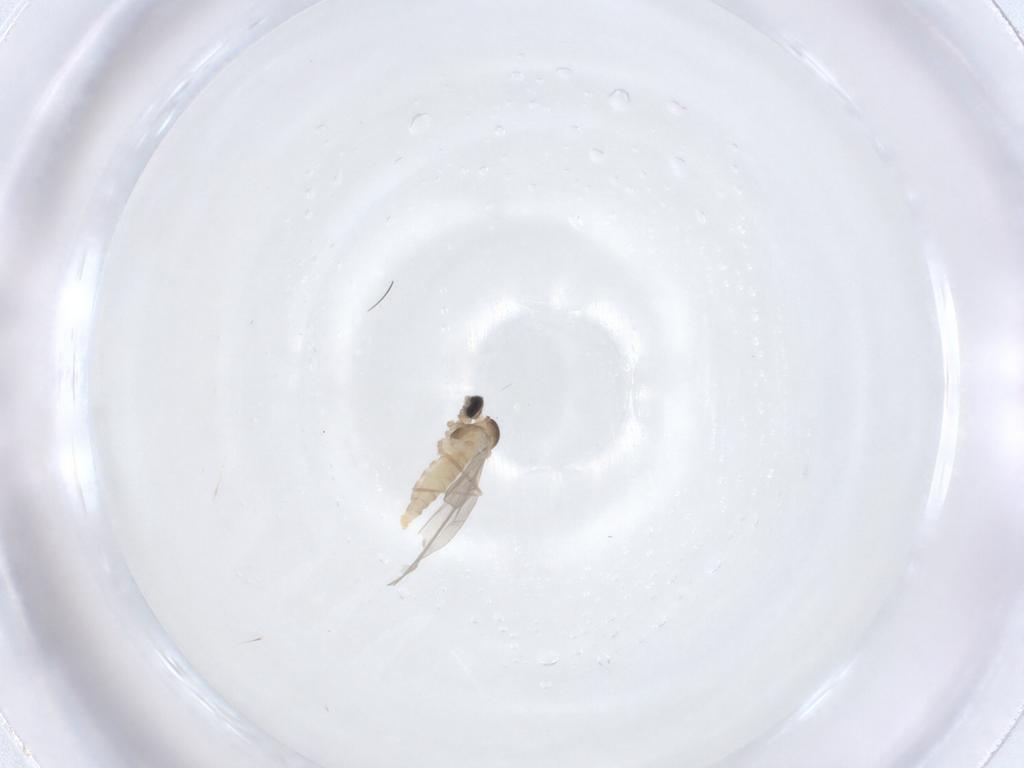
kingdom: Animalia
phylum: Arthropoda
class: Insecta
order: Diptera
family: Cecidomyiidae
